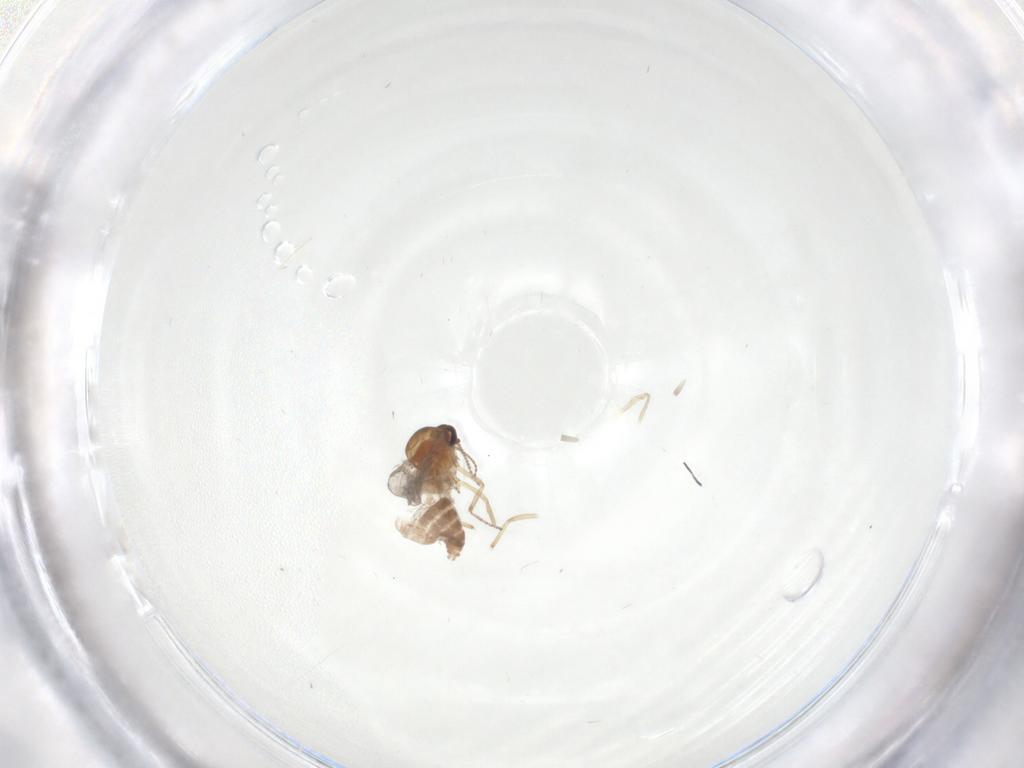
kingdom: Animalia
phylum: Arthropoda
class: Insecta
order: Diptera
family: Ceratopogonidae
